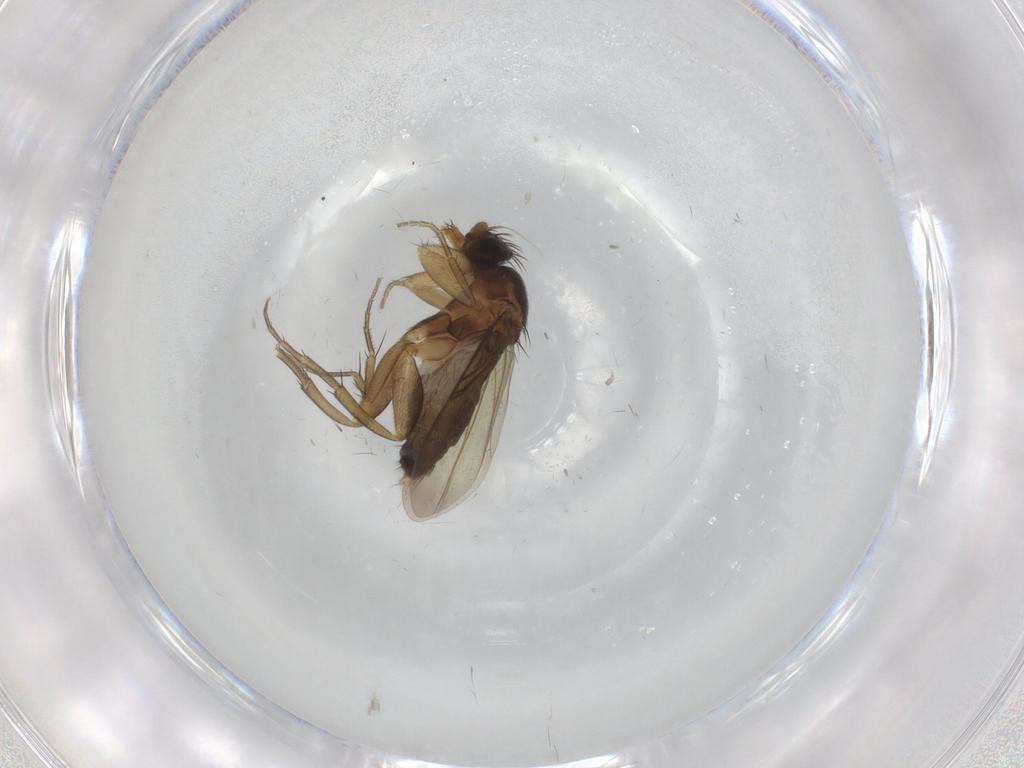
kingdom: Animalia
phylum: Arthropoda
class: Insecta
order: Diptera
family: Phoridae
